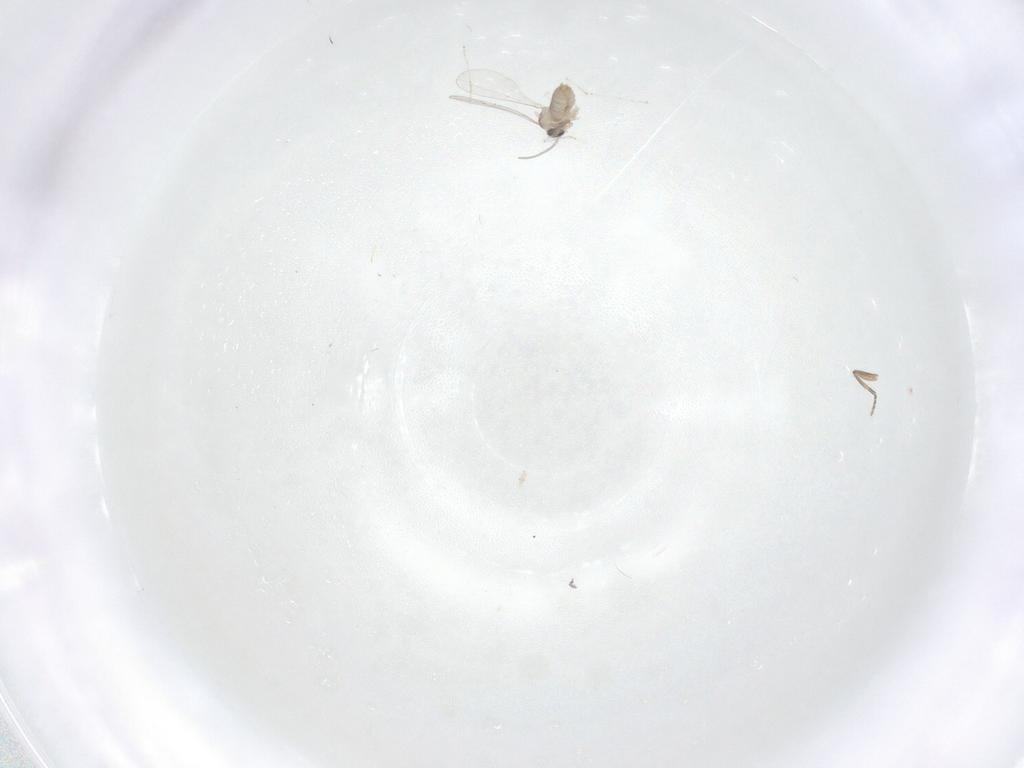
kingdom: Animalia
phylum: Arthropoda
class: Insecta
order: Diptera
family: Cecidomyiidae
